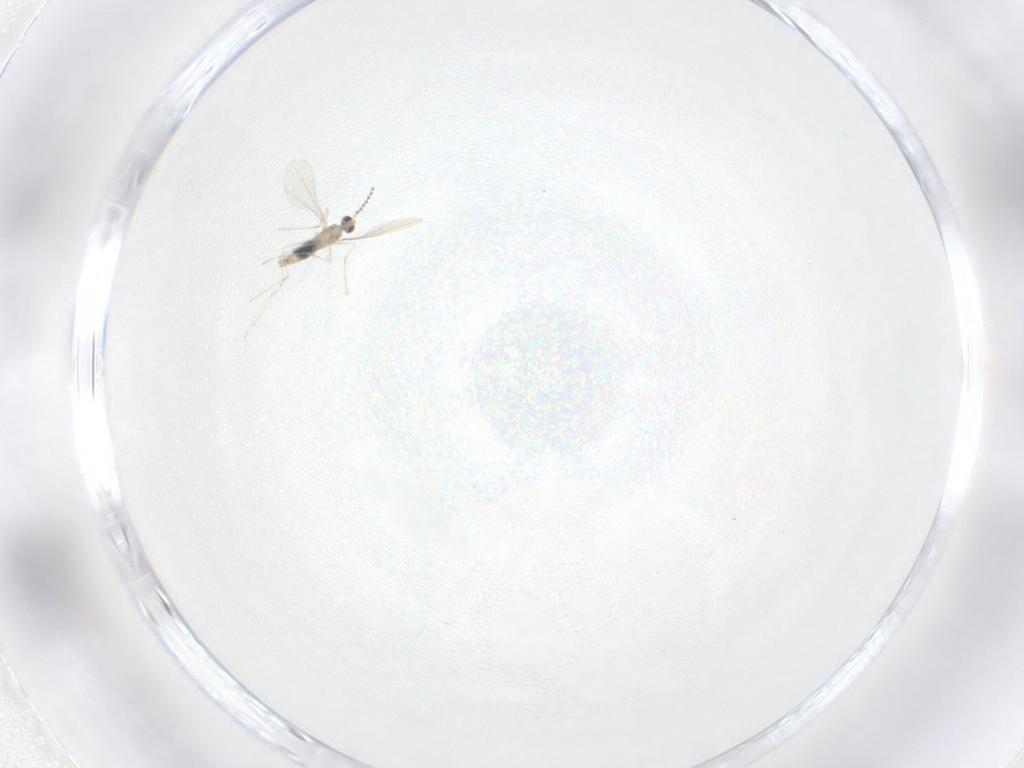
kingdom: Animalia
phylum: Arthropoda
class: Insecta
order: Diptera
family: Cecidomyiidae
